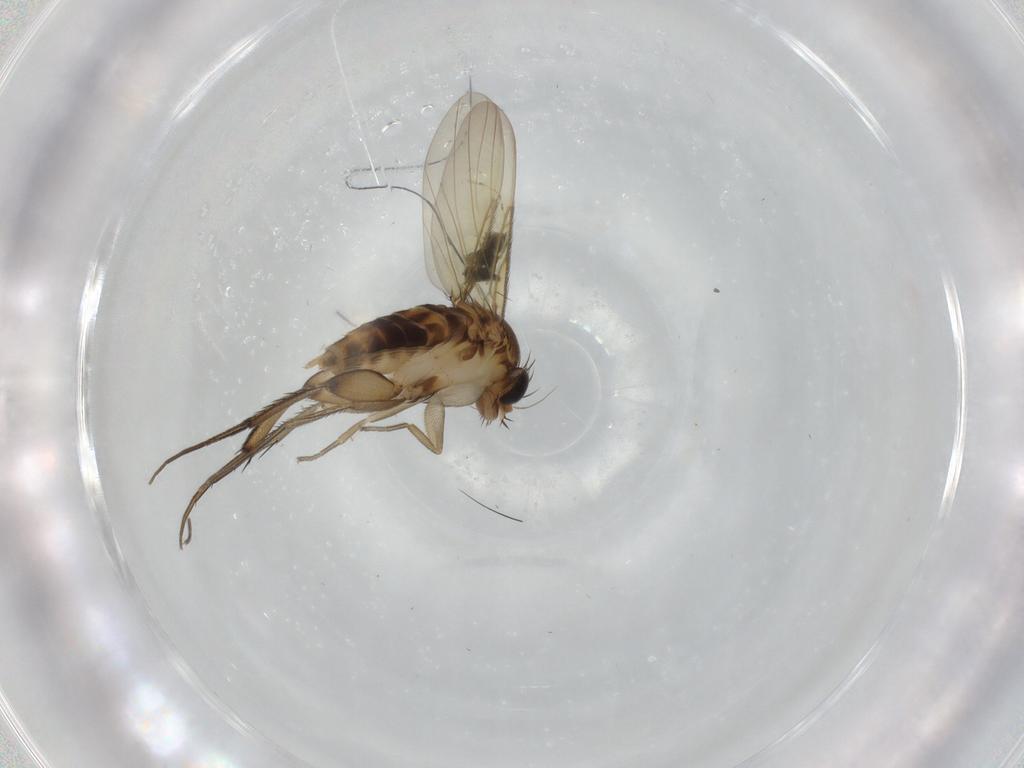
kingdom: Animalia
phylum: Arthropoda
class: Insecta
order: Diptera
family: Phoridae
